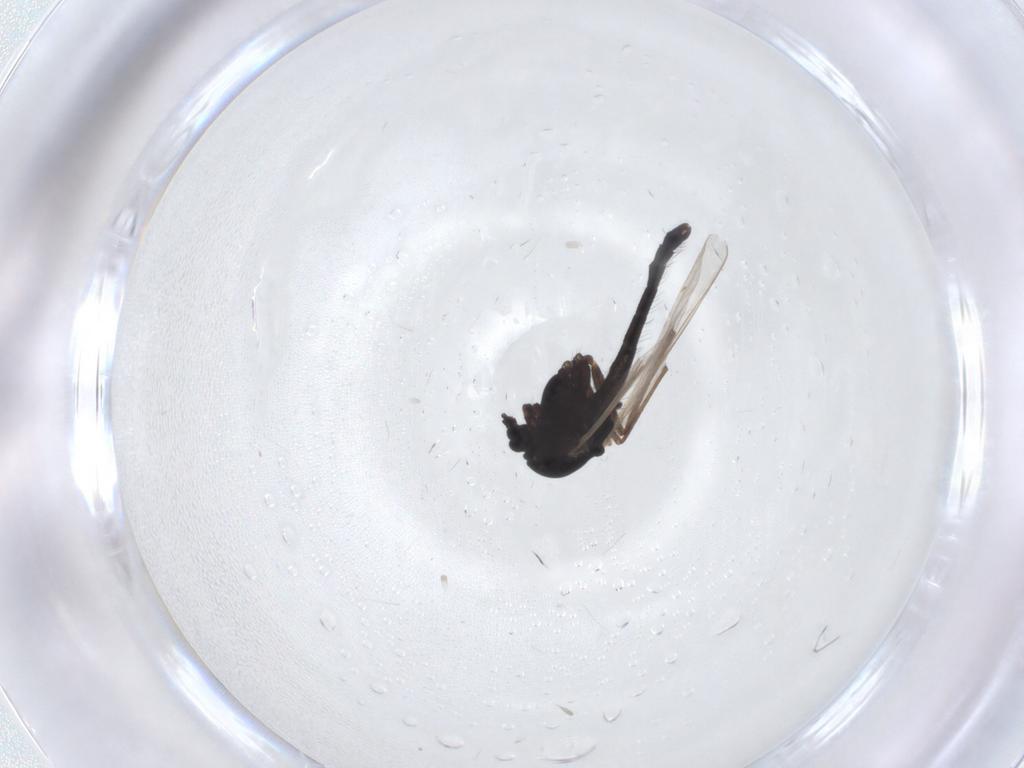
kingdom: Animalia
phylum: Arthropoda
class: Insecta
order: Diptera
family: Chironomidae
